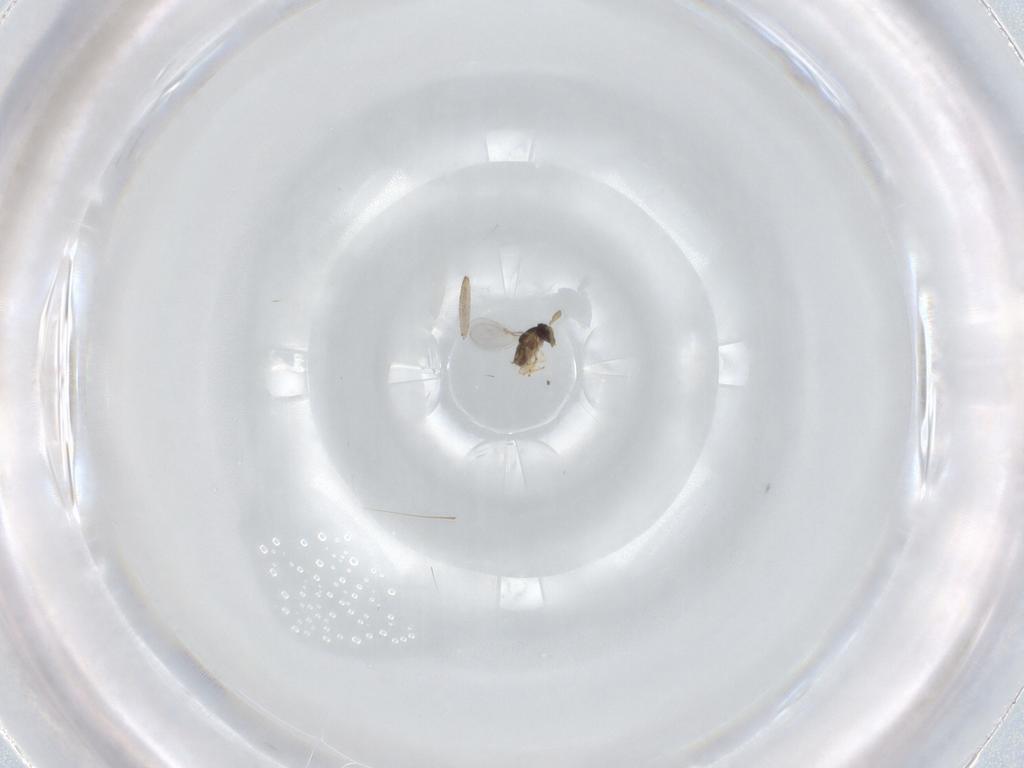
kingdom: Animalia
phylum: Arthropoda
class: Insecta
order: Hymenoptera
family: Encyrtidae
